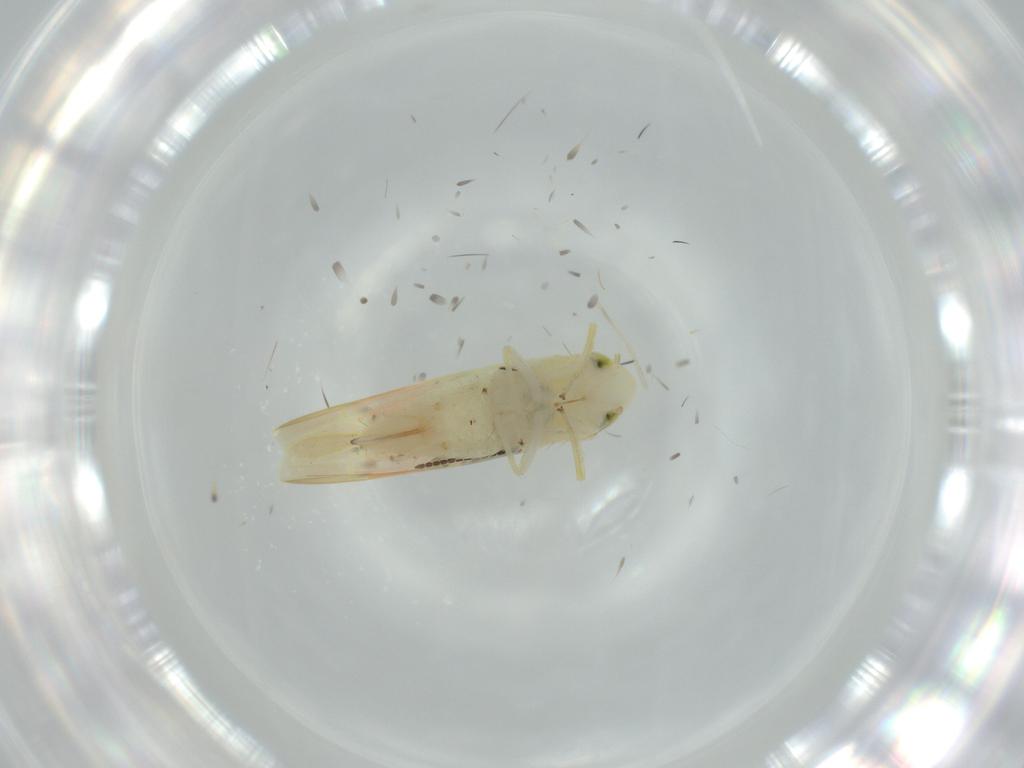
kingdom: Animalia
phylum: Arthropoda
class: Insecta
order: Hemiptera
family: Cicadellidae
